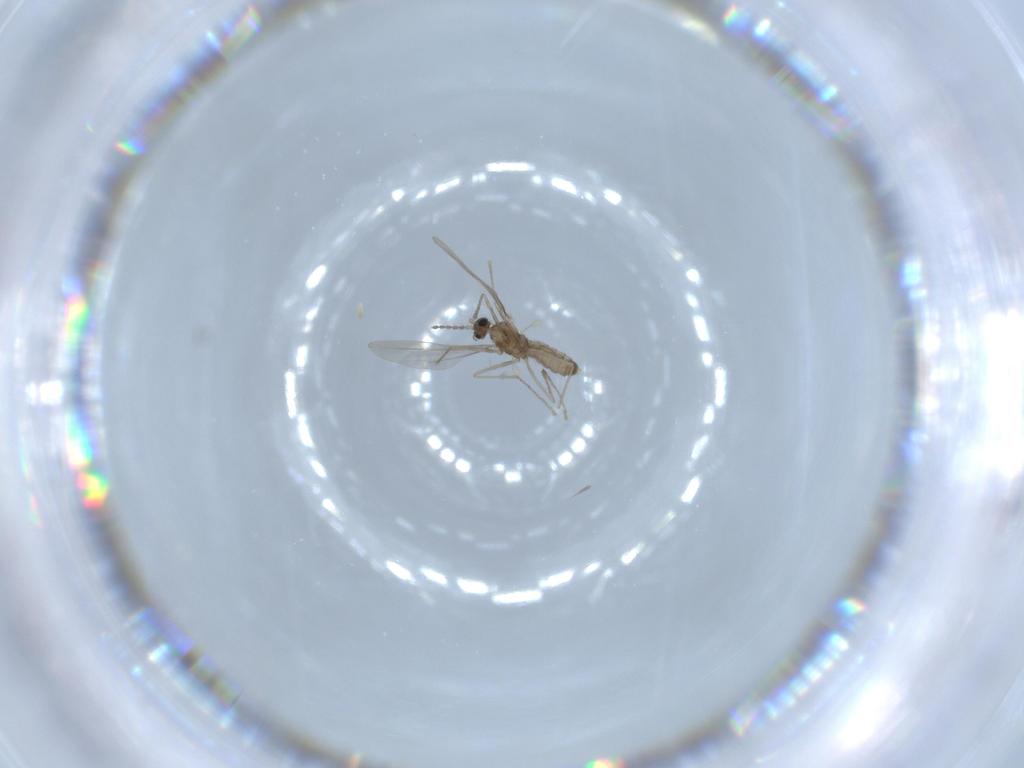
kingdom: Animalia
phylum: Arthropoda
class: Insecta
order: Diptera
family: Cecidomyiidae
